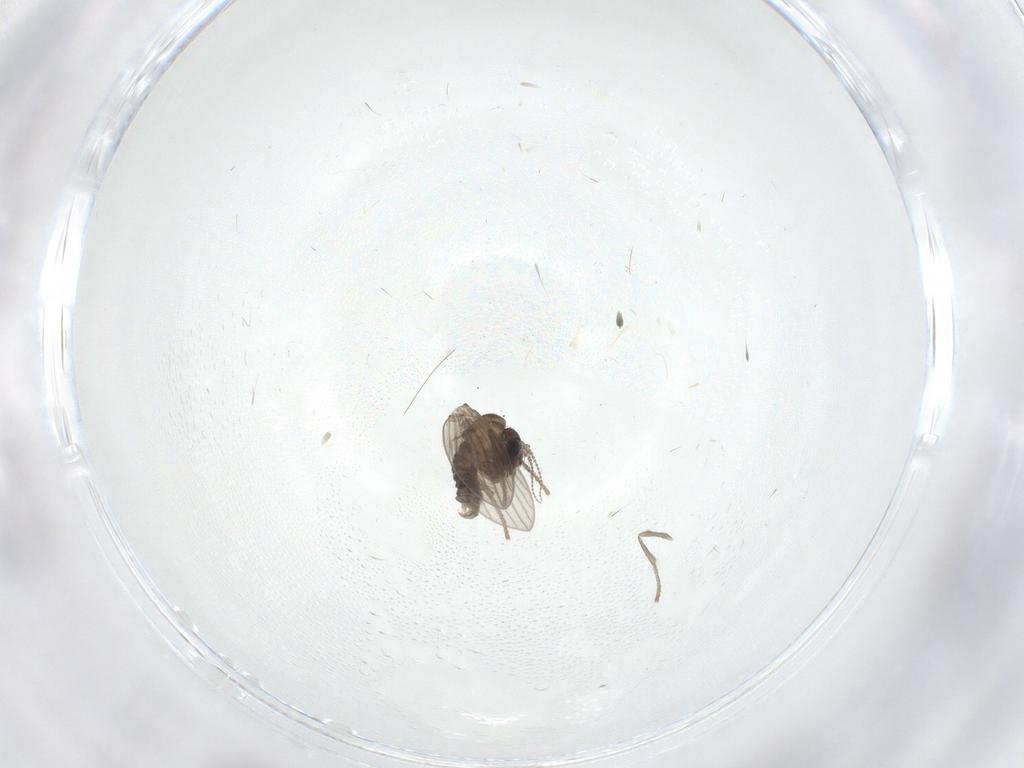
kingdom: Animalia
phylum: Arthropoda
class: Insecta
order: Diptera
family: Psychodidae
